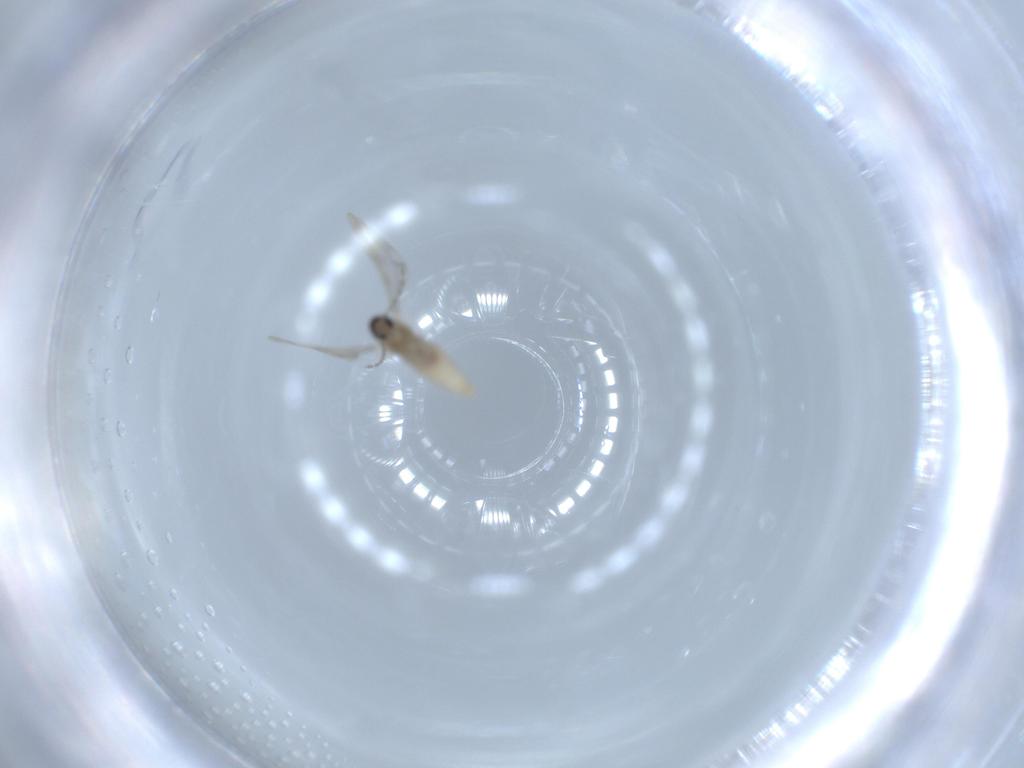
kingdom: Animalia
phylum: Arthropoda
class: Insecta
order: Diptera
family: Cecidomyiidae
